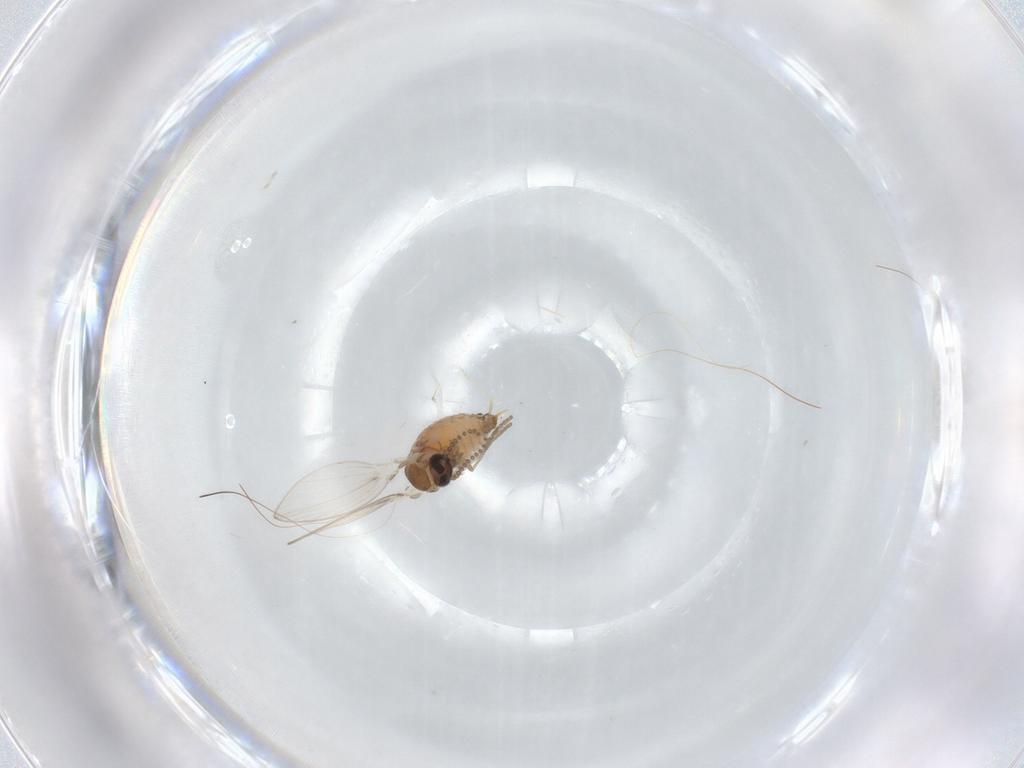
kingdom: Animalia
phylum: Arthropoda
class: Insecta
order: Diptera
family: Psychodidae
